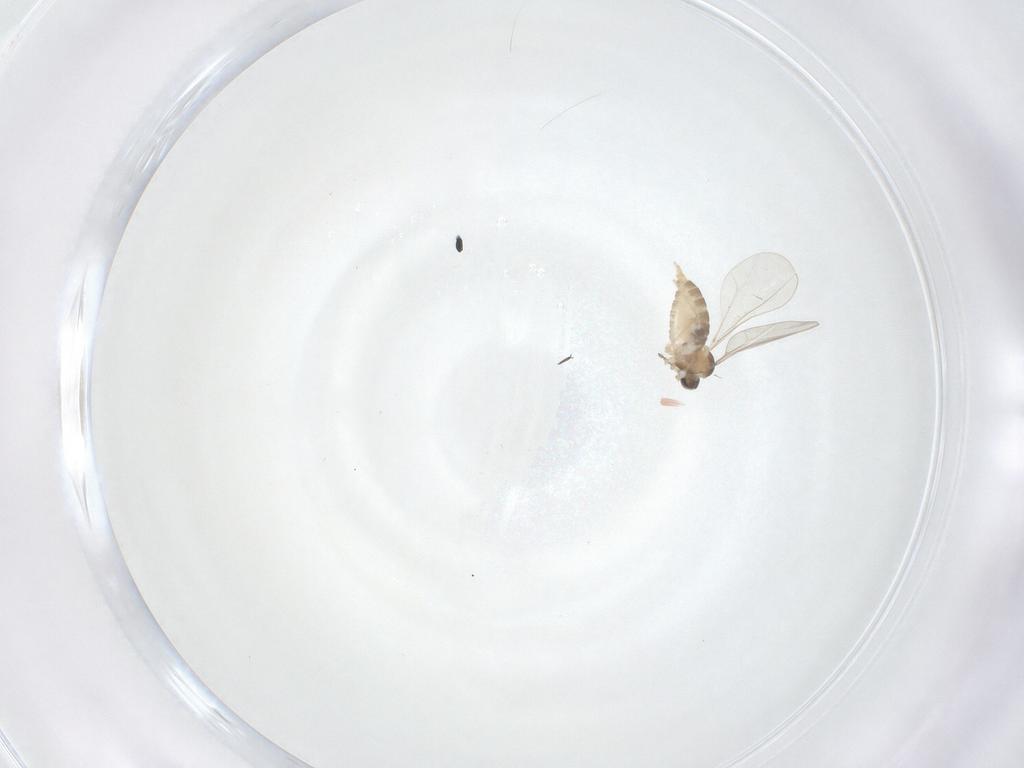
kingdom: Animalia
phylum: Arthropoda
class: Insecta
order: Diptera
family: Cecidomyiidae
